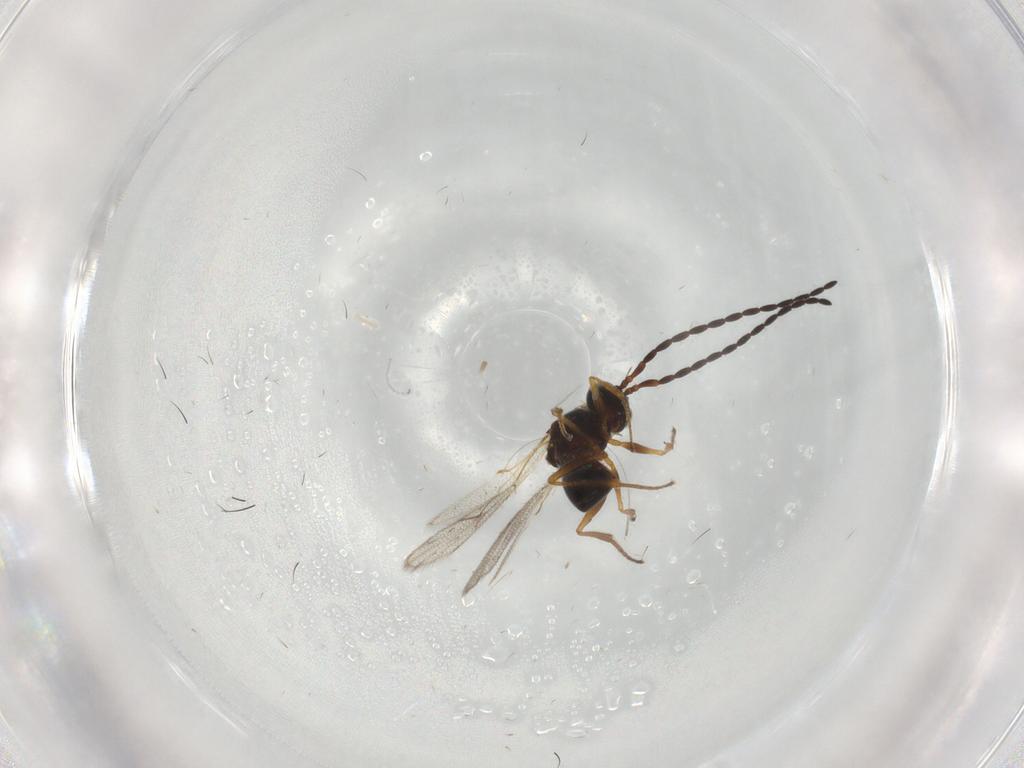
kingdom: Animalia
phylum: Arthropoda
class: Insecta
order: Hymenoptera
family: Figitidae
